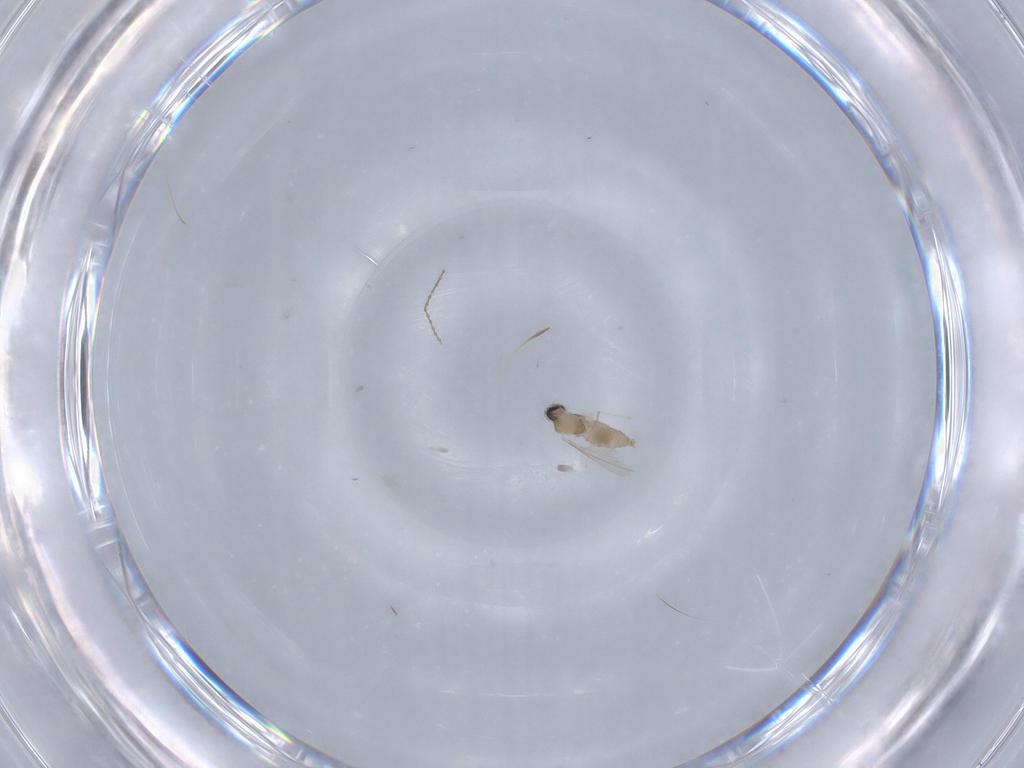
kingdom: Animalia
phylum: Arthropoda
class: Insecta
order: Diptera
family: Cecidomyiidae
